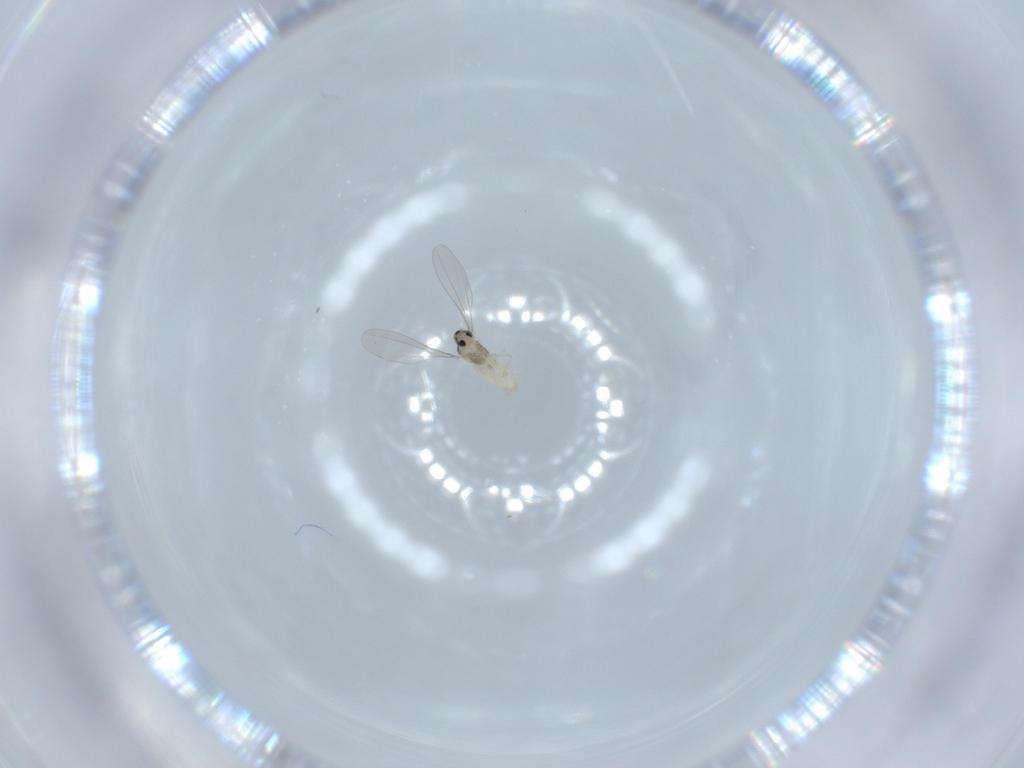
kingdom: Animalia
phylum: Arthropoda
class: Insecta
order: Diptera
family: Cecidomyiidae
